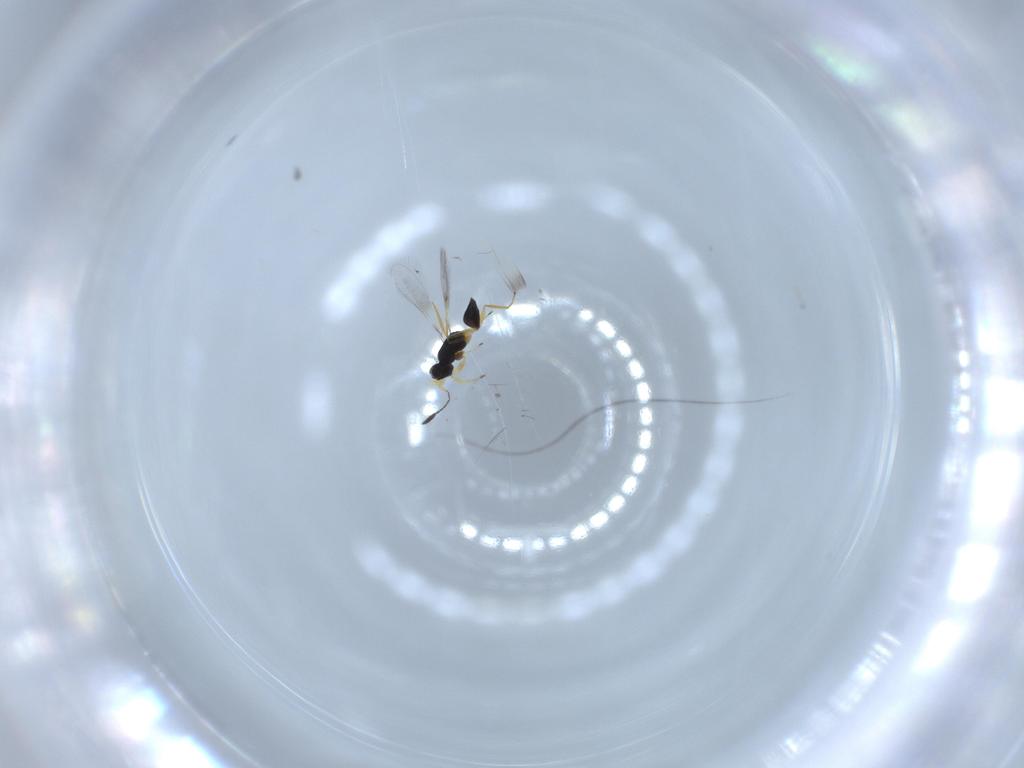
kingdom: Animalia
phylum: Arthropoda
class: Insecta
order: Hymenoptera
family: Mymaridae
